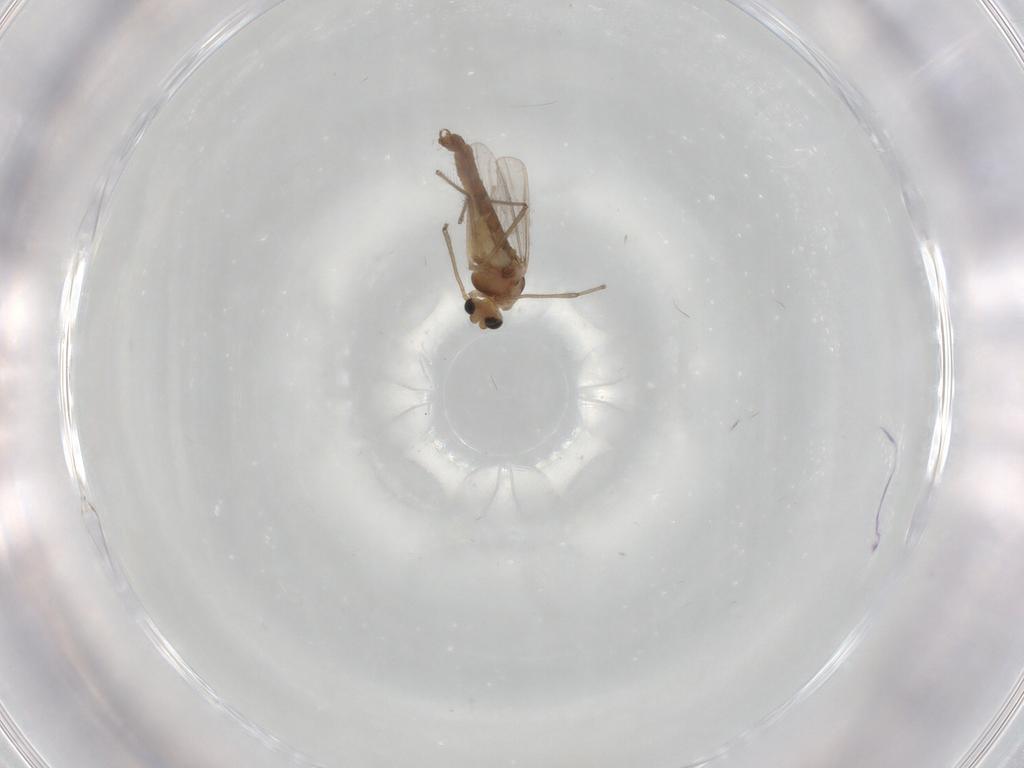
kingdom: Animalia
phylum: Arthropoda
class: Insecta
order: Diptera
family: Chironomidae
